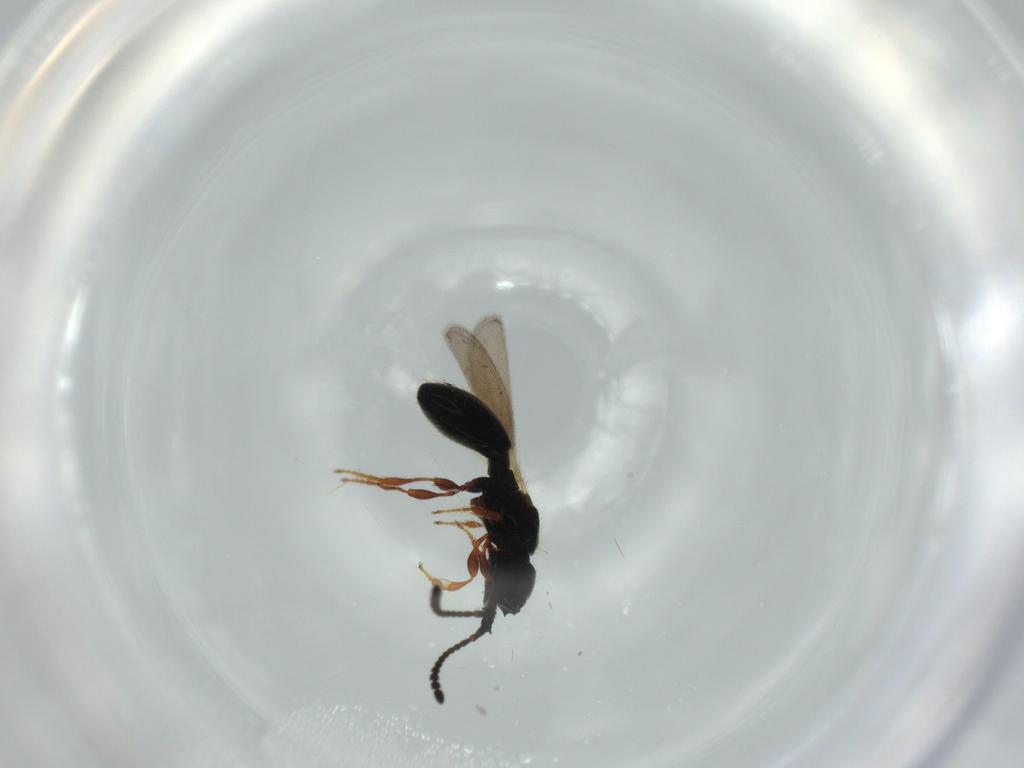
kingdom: Animalia
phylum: Arthropoda
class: Insecta
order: Hymenoptera
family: Diapriidae
